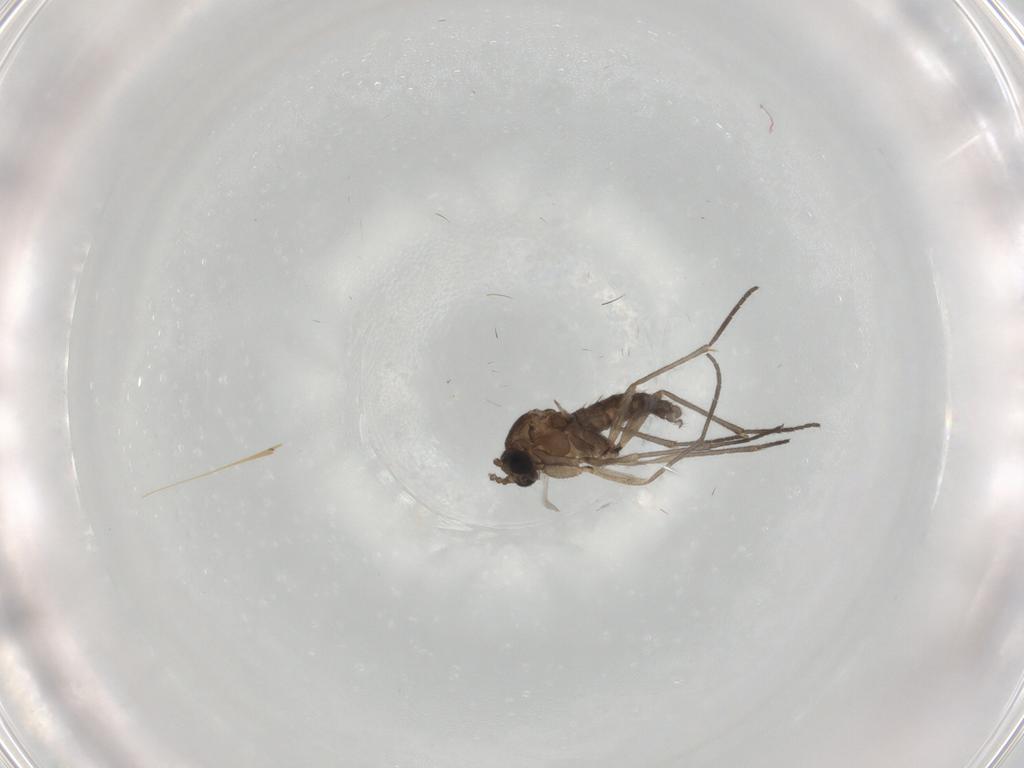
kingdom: Animalia
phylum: Arthropoda
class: Insecta
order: Diptera
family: Sciaridae
